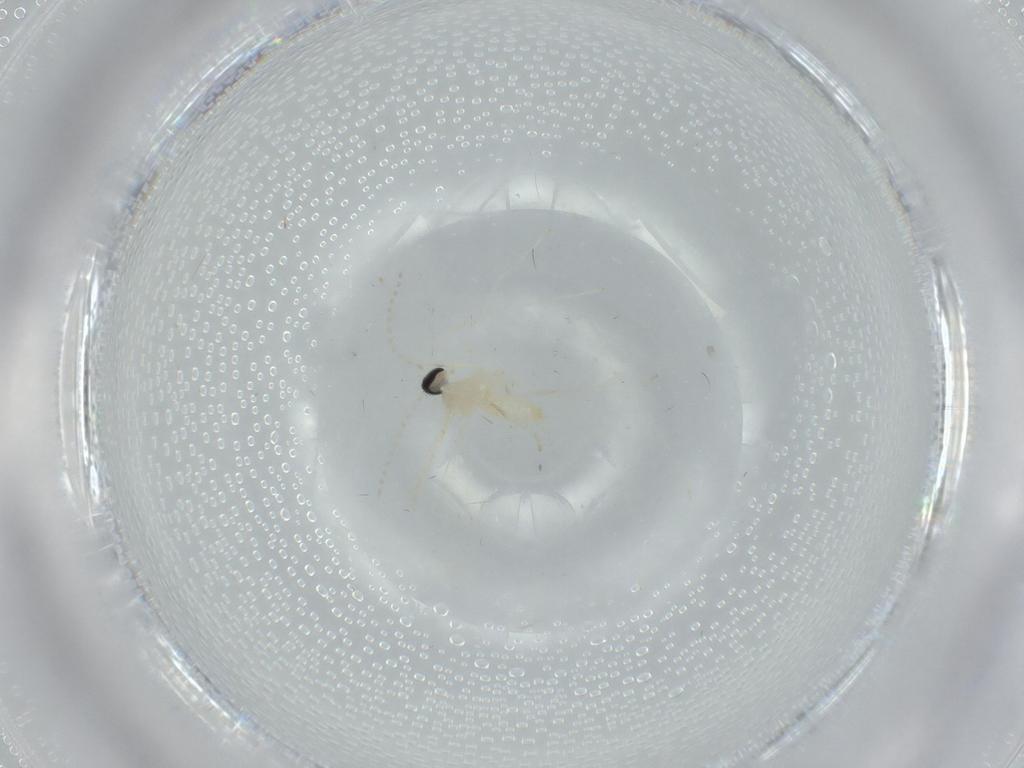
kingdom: Animalia
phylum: Arthropoda
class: Insecta
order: Diptera
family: Cecidomyiidae
